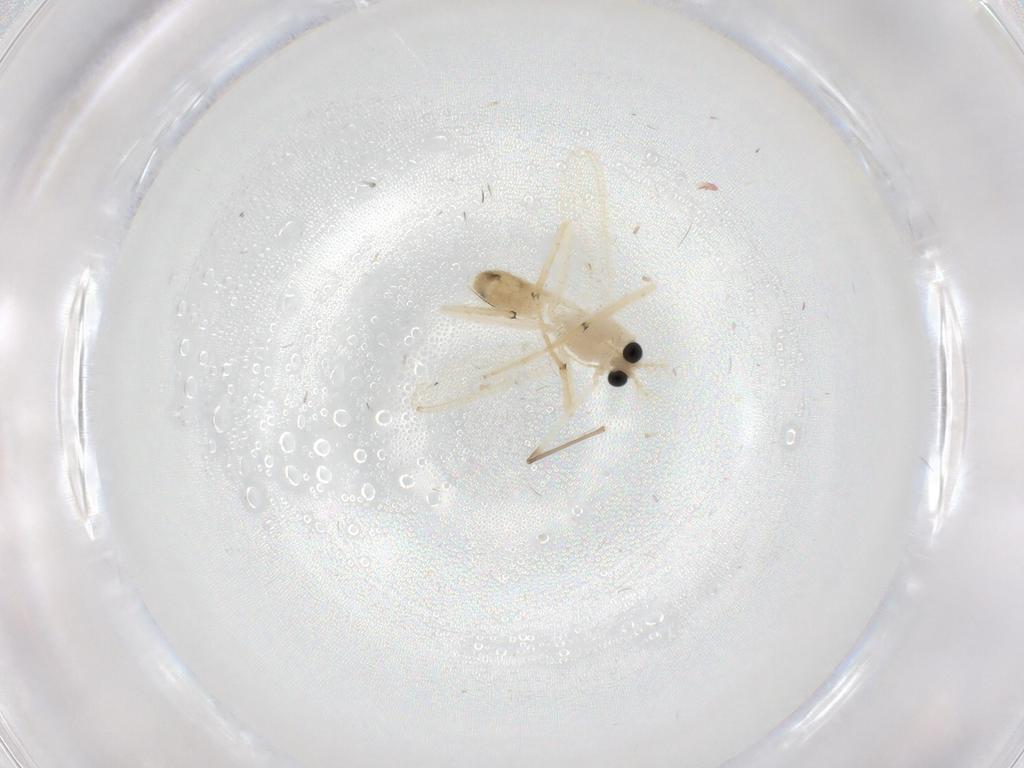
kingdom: Animalia
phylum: Arthropoda
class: Insecta
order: Diptera
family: Chironomidae
